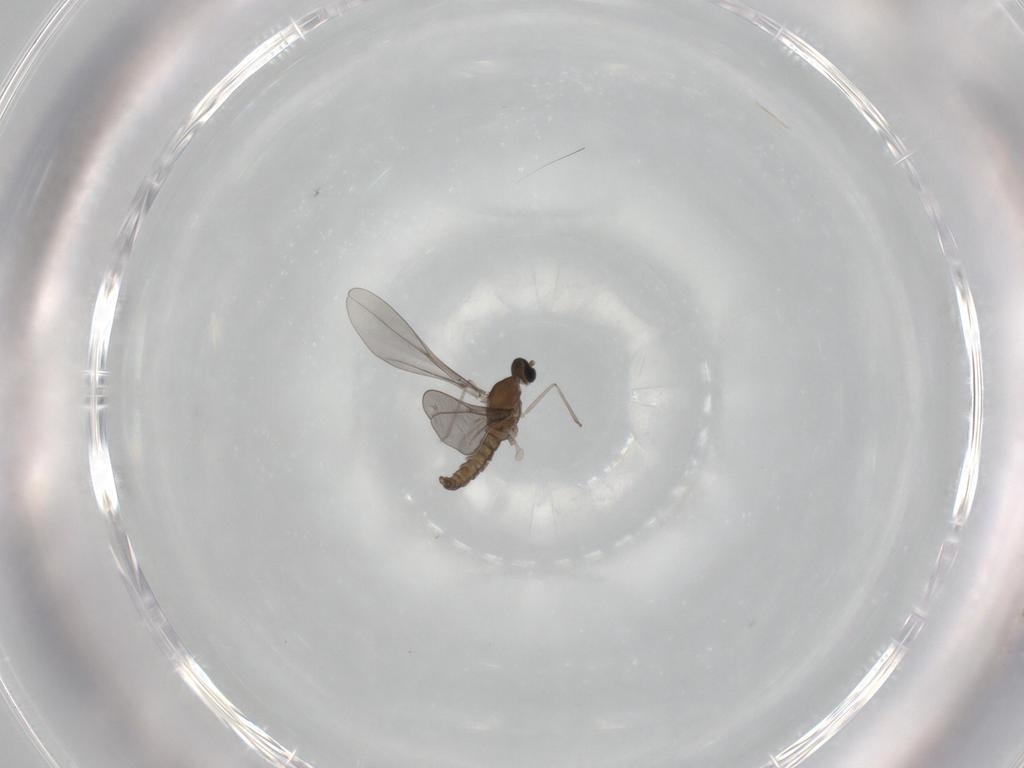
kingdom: Animalia
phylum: Arthropoda
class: Insecta
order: Diptera
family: Cecidomyiidae
